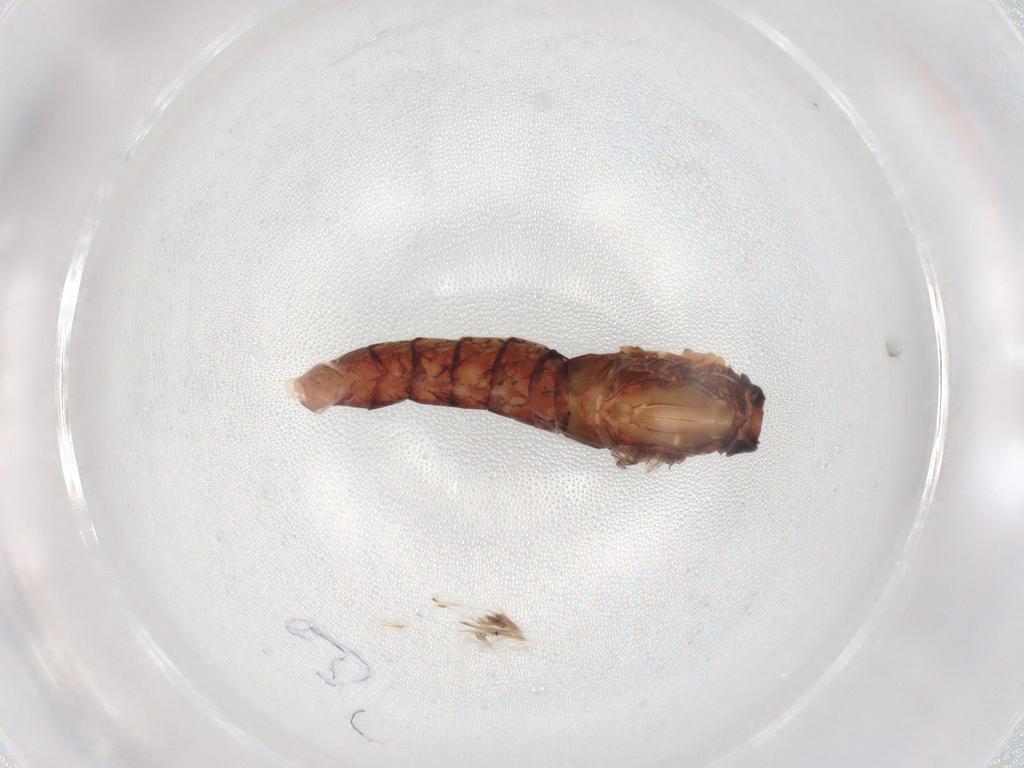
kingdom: Animalia
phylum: Arthropoda
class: Insecta
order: Ephemeroptera
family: Baetidae
